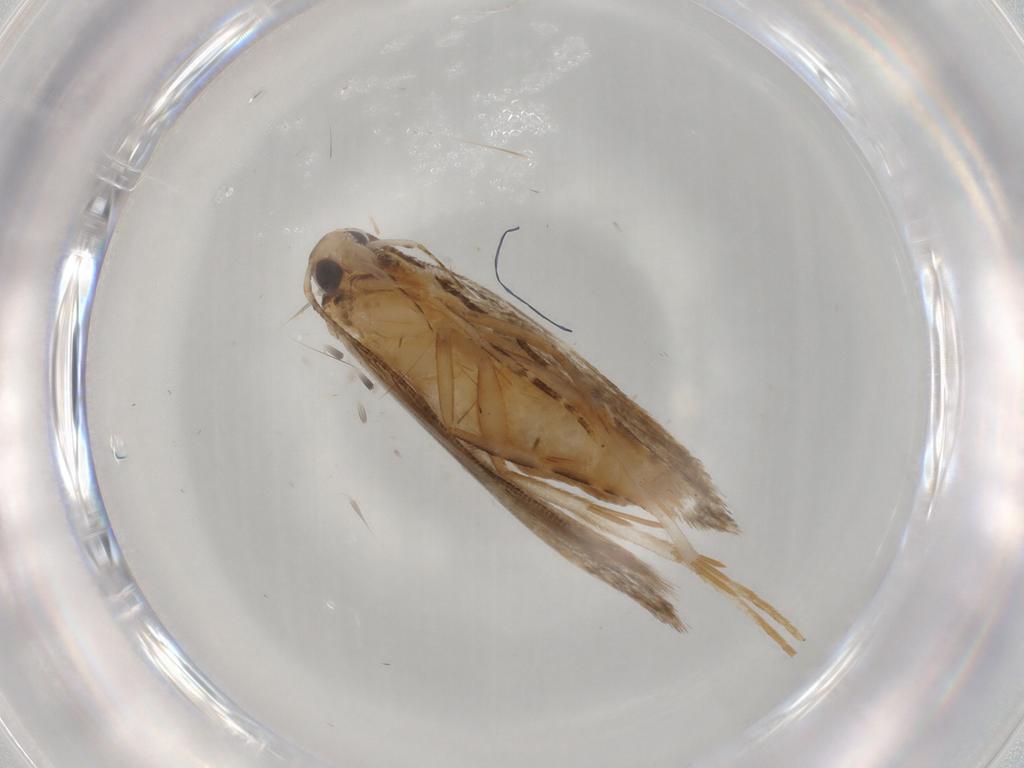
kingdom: Animalia
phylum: Arthropoda
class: Insecta
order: Lepidoptera
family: Autostichidae
